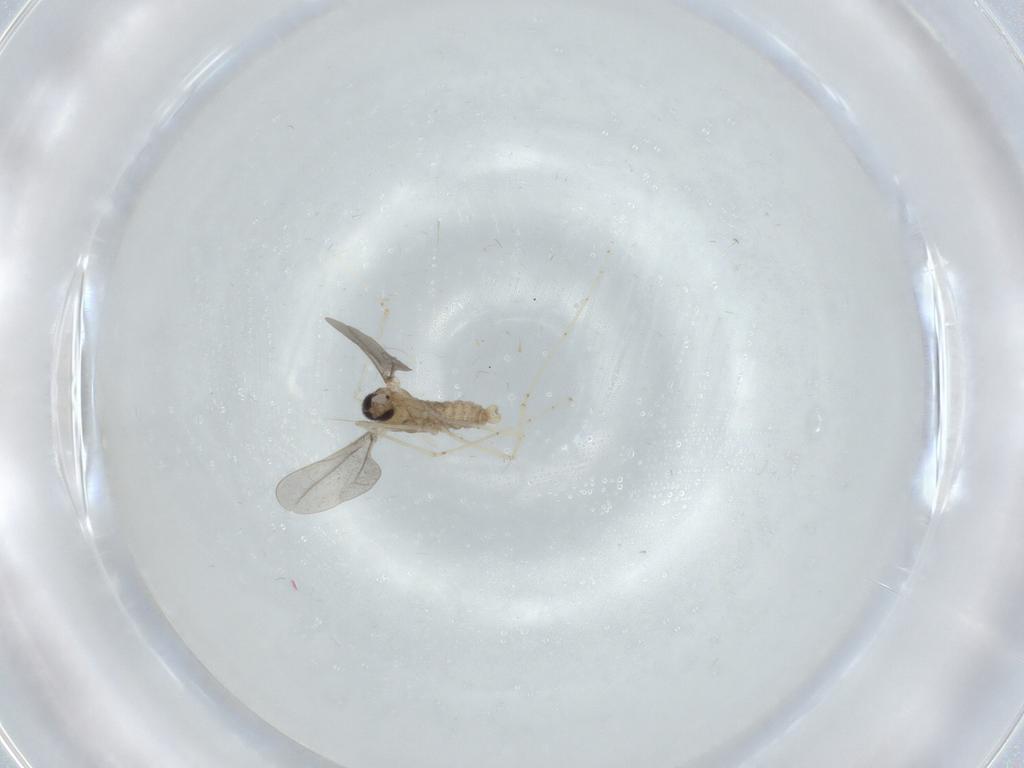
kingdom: Animalia
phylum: Arthropoda
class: Insecta
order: Diptera
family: Cecidomyiidae
